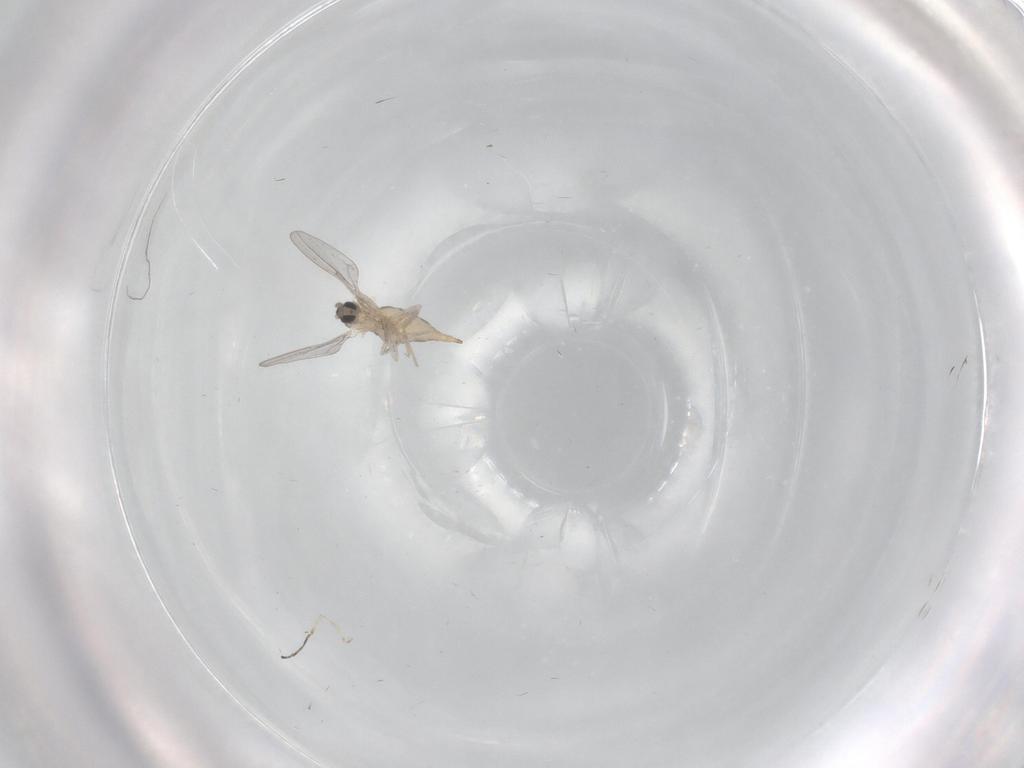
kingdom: Animalia
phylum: Arthropoda
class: Insecta
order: Diptera
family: Cecidomyiidae
